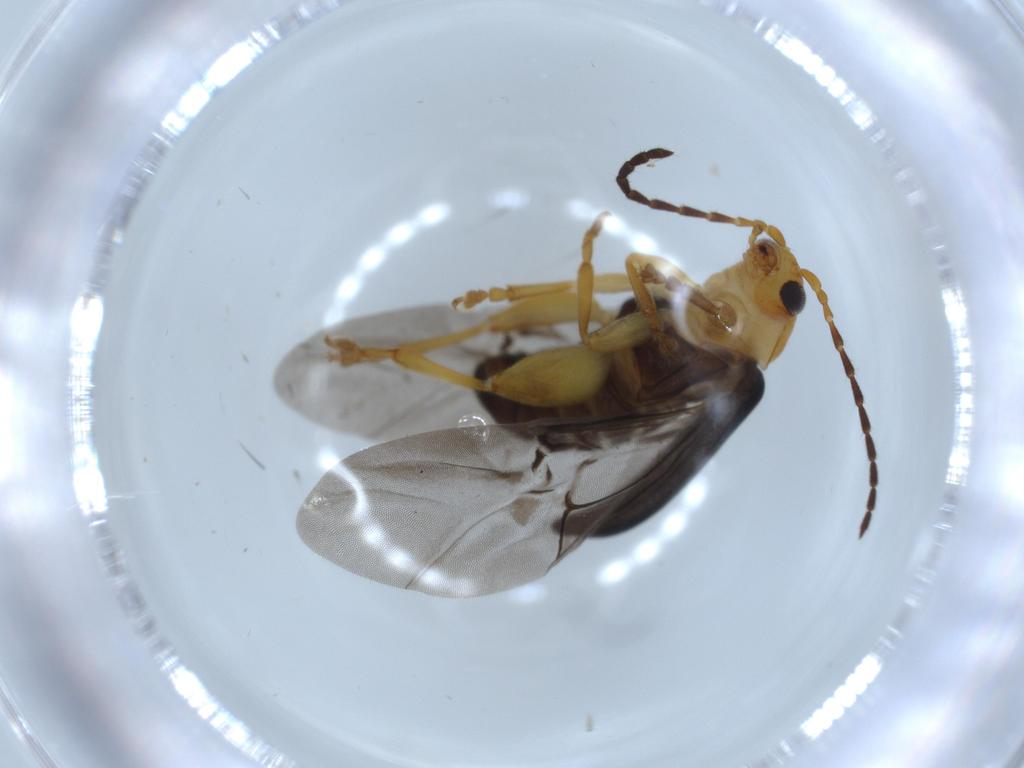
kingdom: Animalia
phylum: Arthropoda
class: Insecta
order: Coleoptera
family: Chrysomelidae
